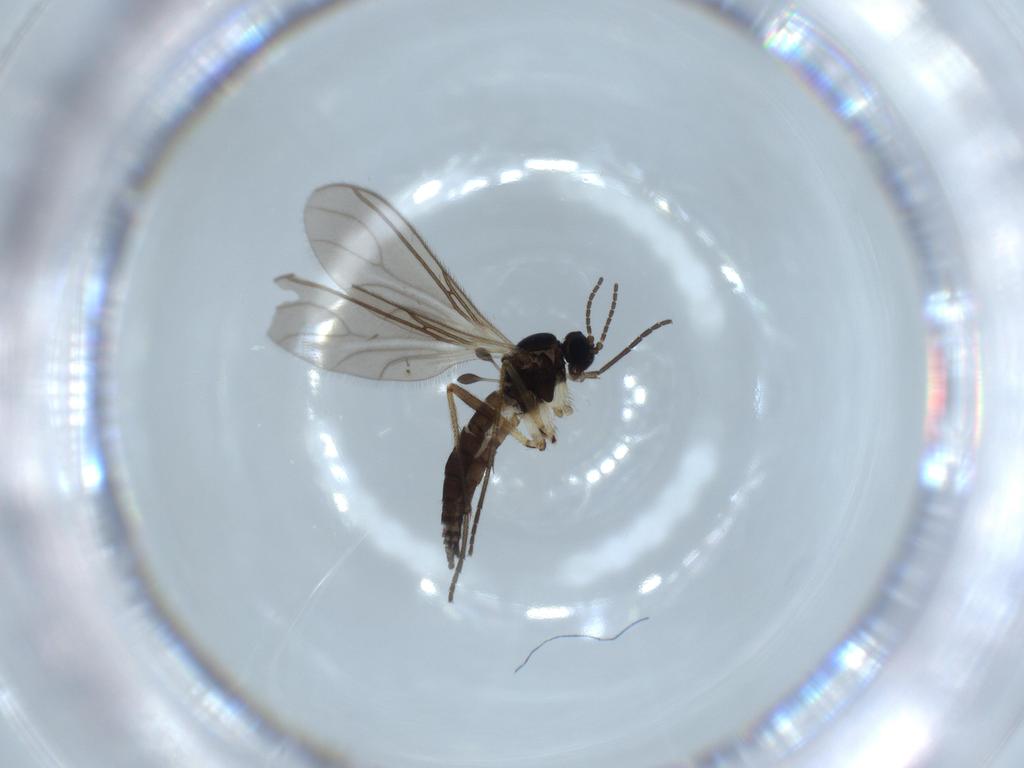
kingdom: Animalia
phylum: Arthropoda
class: Insecta
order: Diptera
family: Sciaridae
